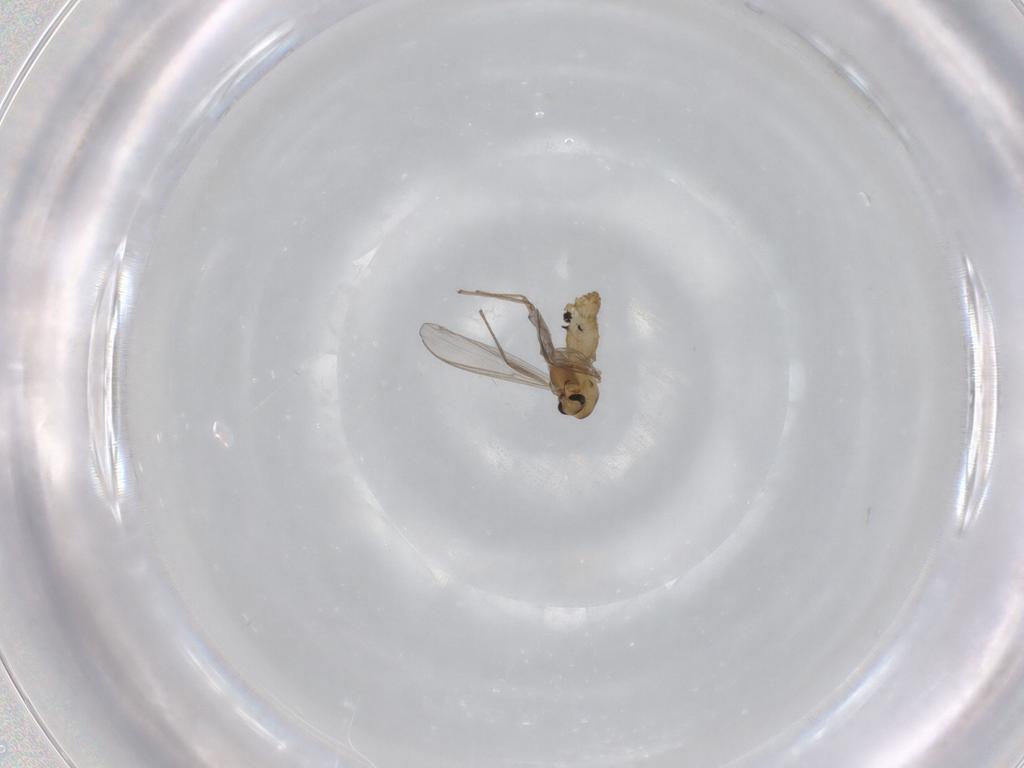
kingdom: Animalia
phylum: Arthropoda
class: Insecta
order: Diptera
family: Chironomidae
